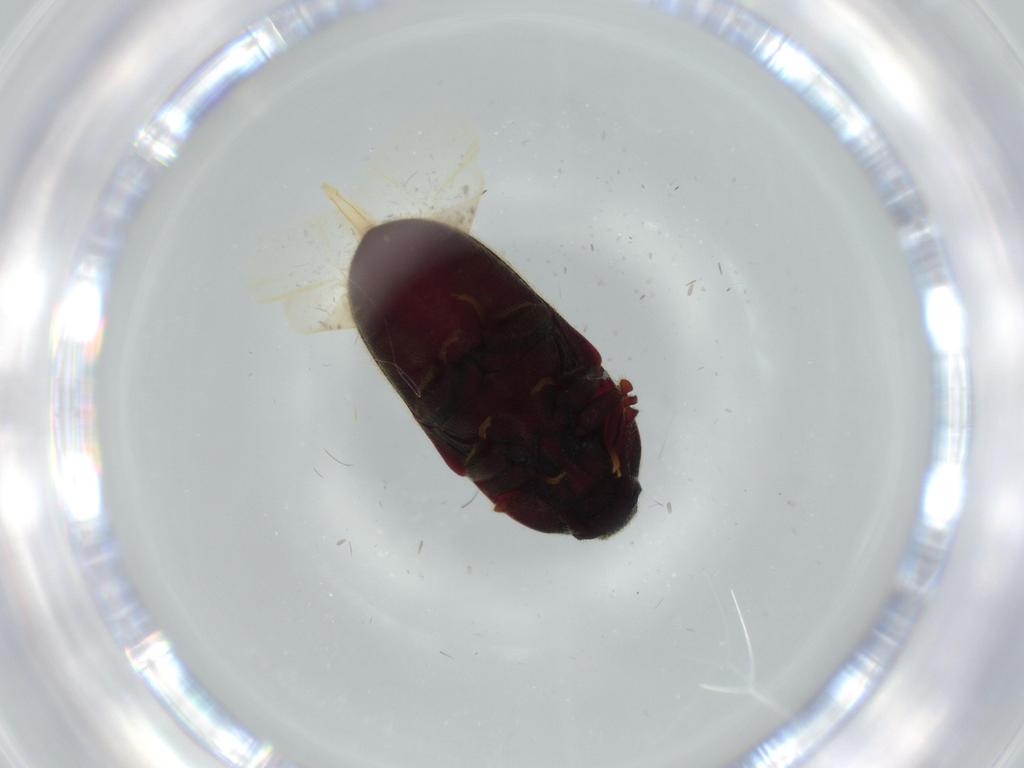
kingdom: Animalia
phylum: Arthropoda
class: Insecta
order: Coleoptera
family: Throscidae
